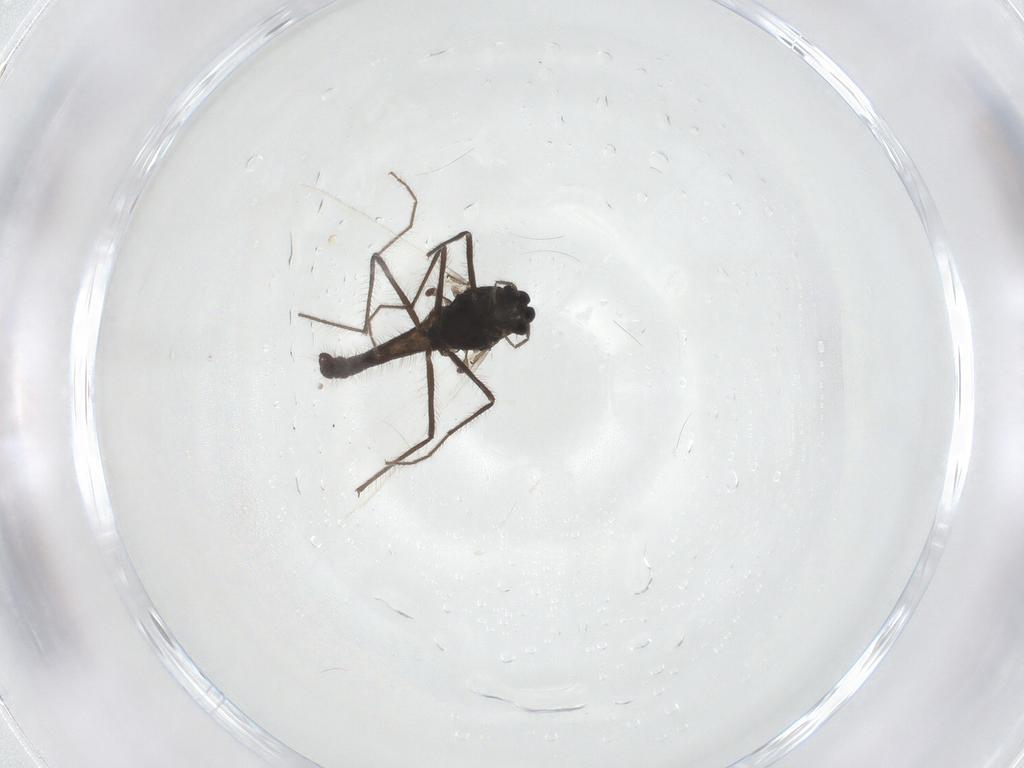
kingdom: Animalia
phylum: Arthropoda
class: Insecta
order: Diptera
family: Chironomidae
